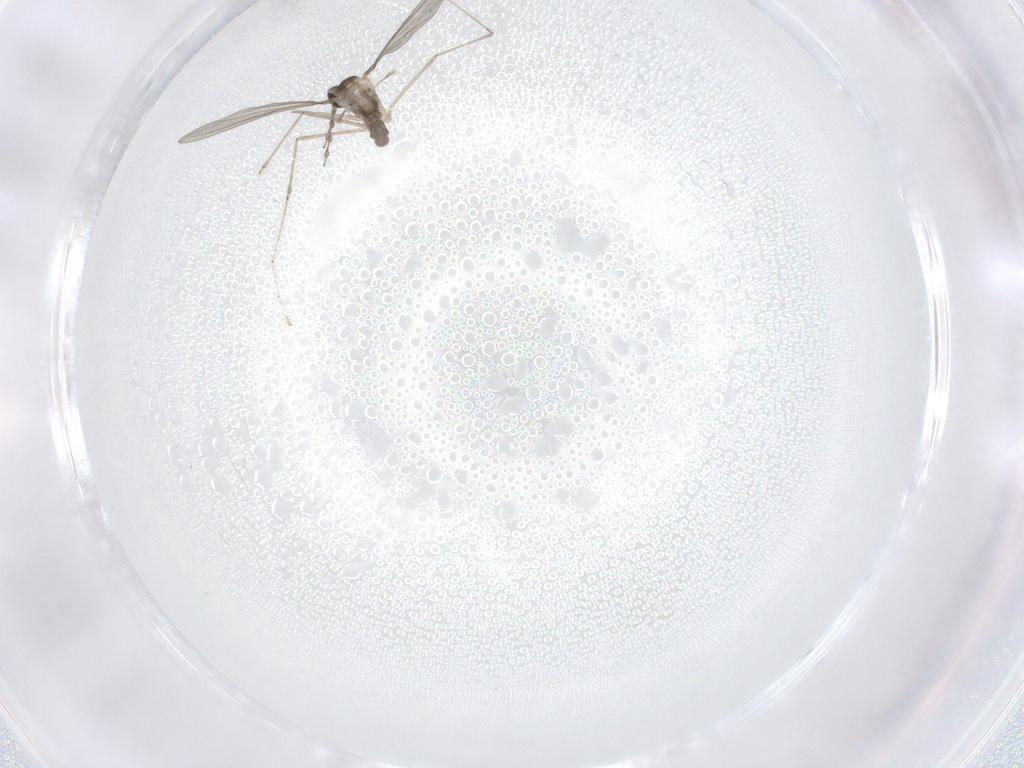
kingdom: Animalia
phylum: Arthropoda
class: Insecta
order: Diptera
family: Cecidomyiidae
